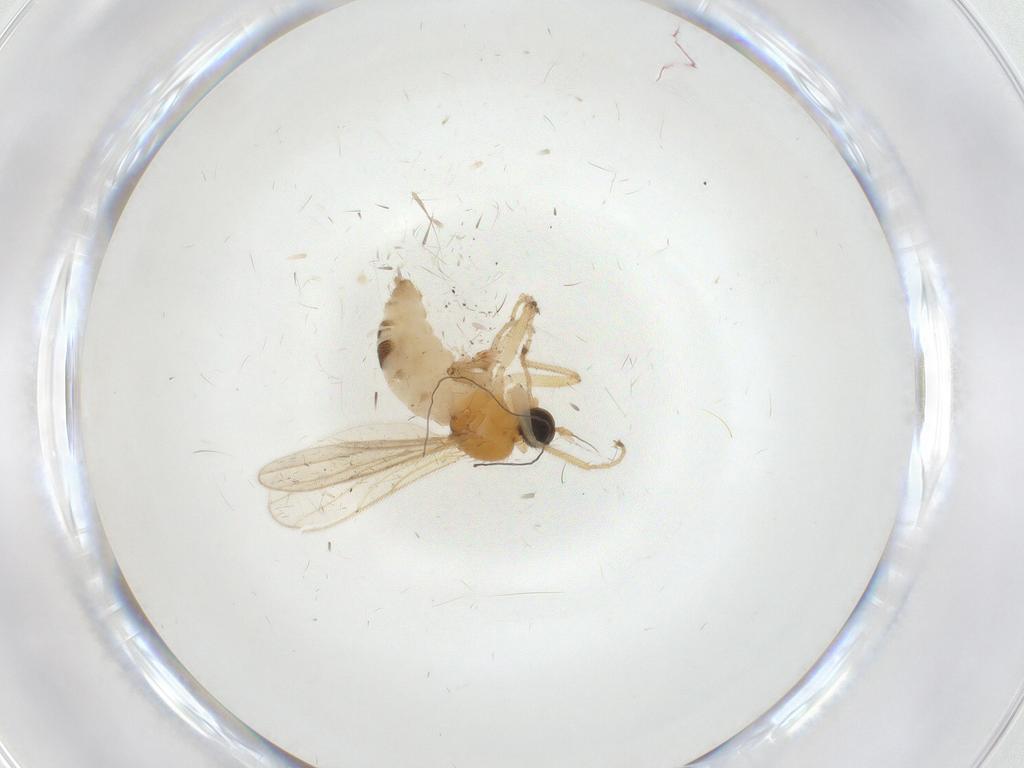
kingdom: Animalia
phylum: Arthropoda
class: Insecta
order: Diptera
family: Hybotidae
